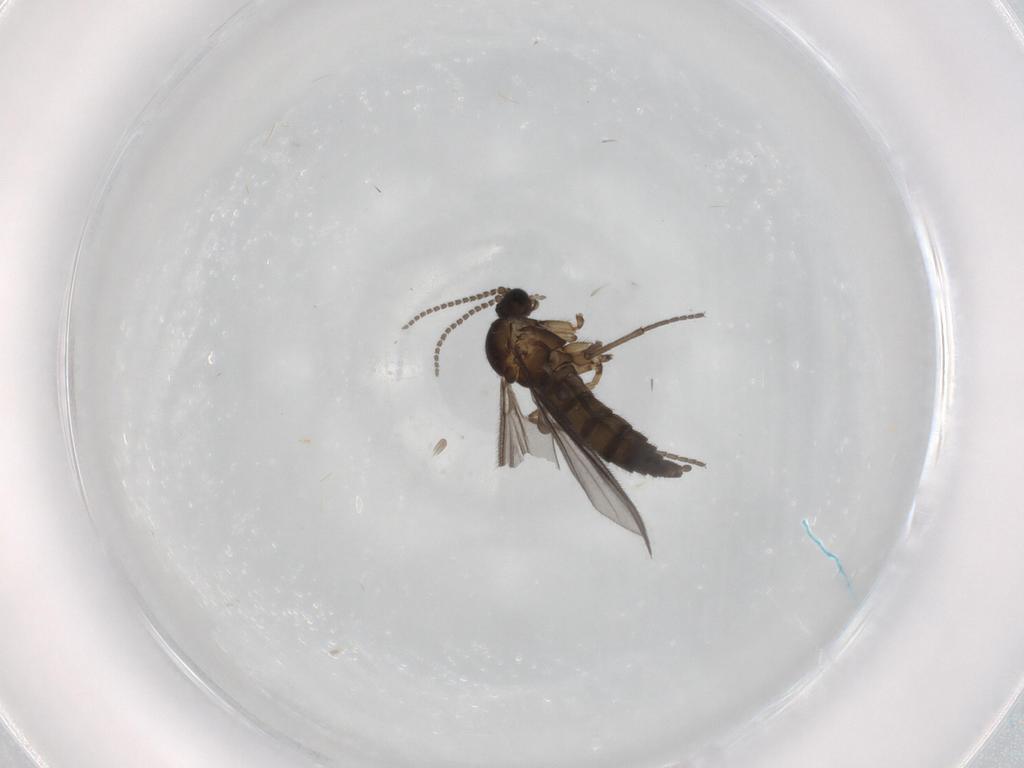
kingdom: Animalia
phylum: Arthropoda
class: Insecta
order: Diptera
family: Sciaridae
